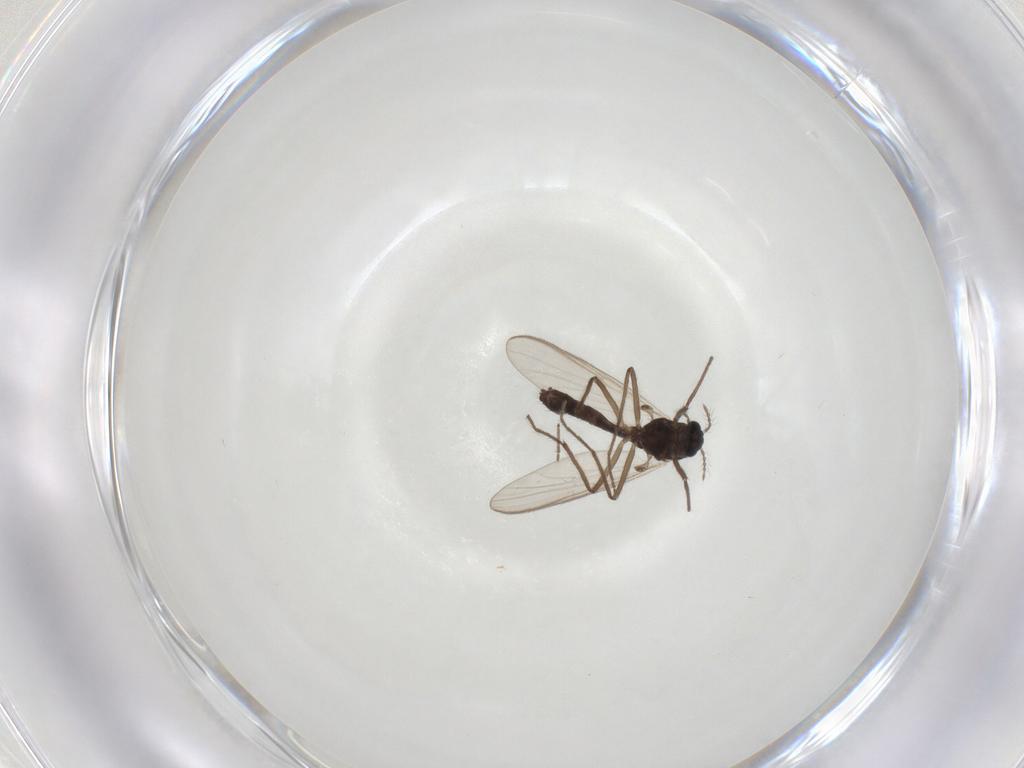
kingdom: Animalia
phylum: Arthropoda
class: Insecta
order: Diptera
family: Chironomidae
